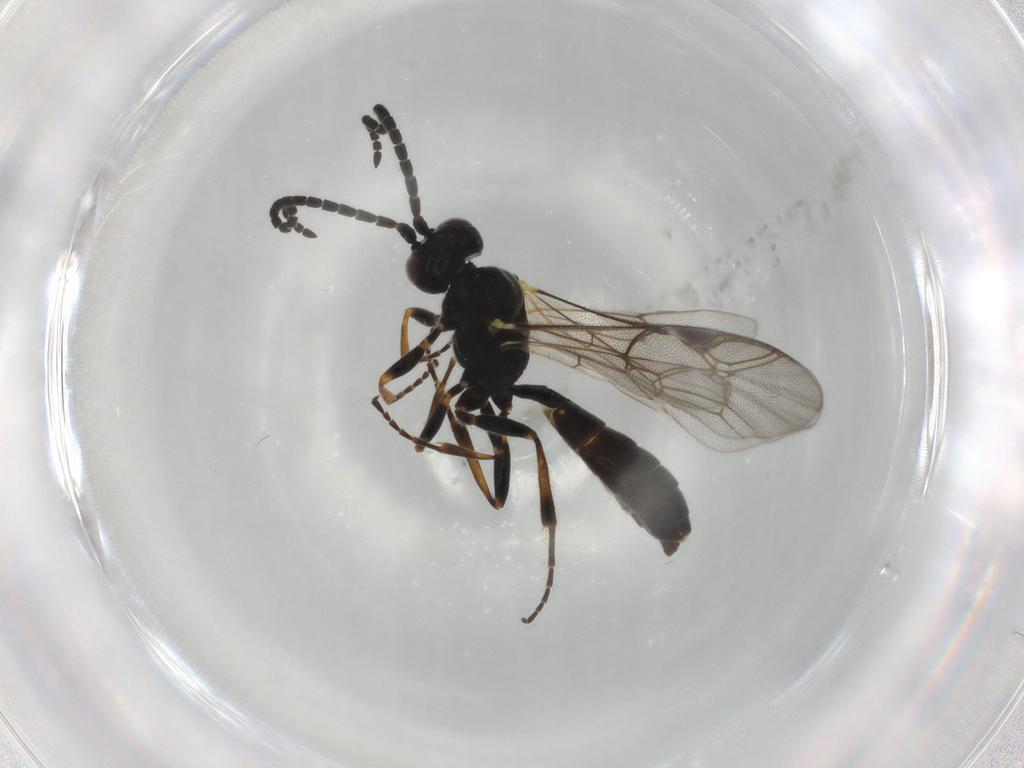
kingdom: Animalia
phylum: Arthropoda
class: Insecta
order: Hymenoptera
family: Ichneumonidae
